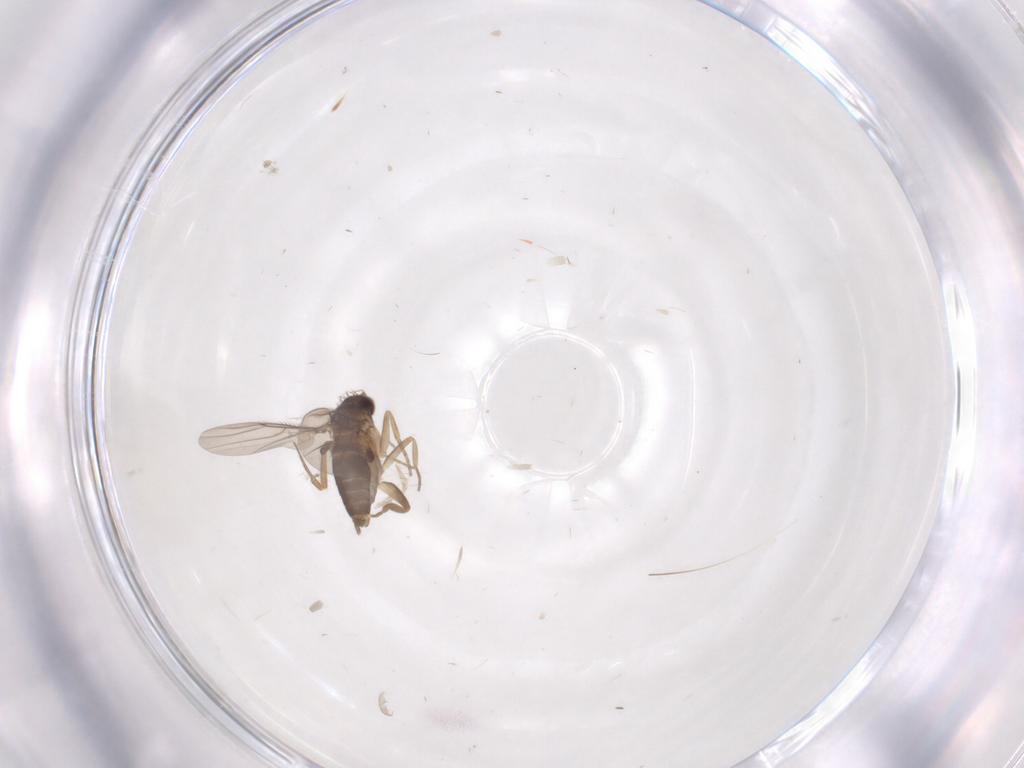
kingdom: Animalia
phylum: Arthropoda
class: Insecta
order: Diptera
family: Phoridae
